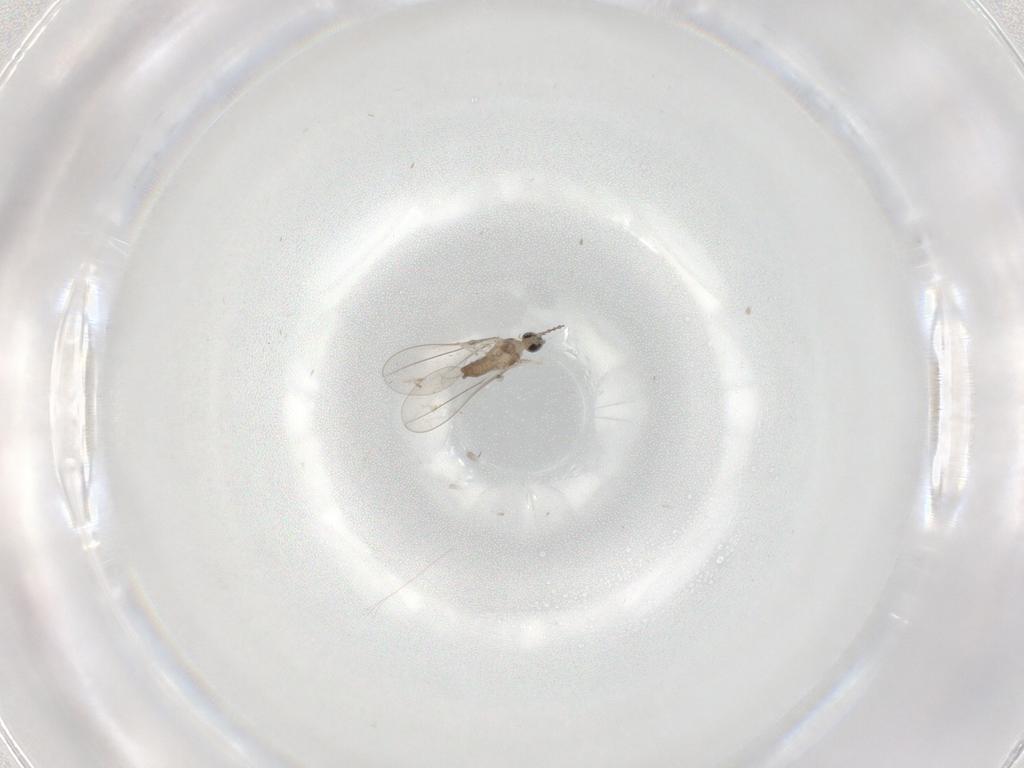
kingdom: Animalia
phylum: Arthropoda
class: Insecta
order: Diptera
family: Cecidomyiidae
